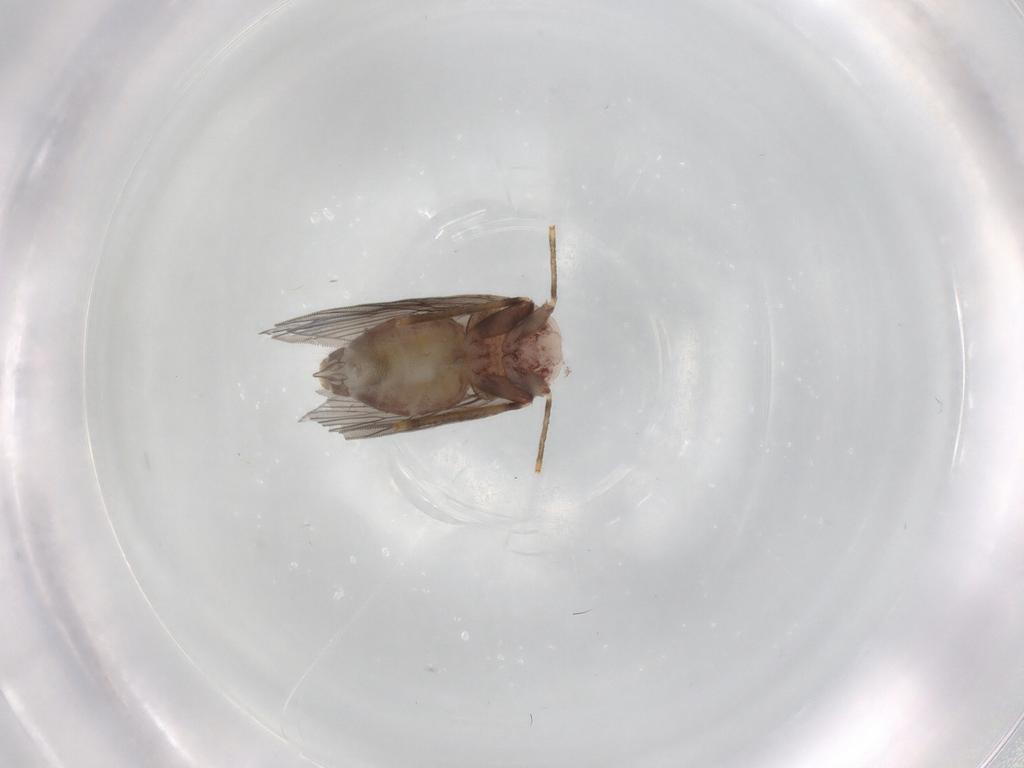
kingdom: Animalia
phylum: Arthropoda
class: Insecta
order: Psocodea
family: Lepidopsocidae
